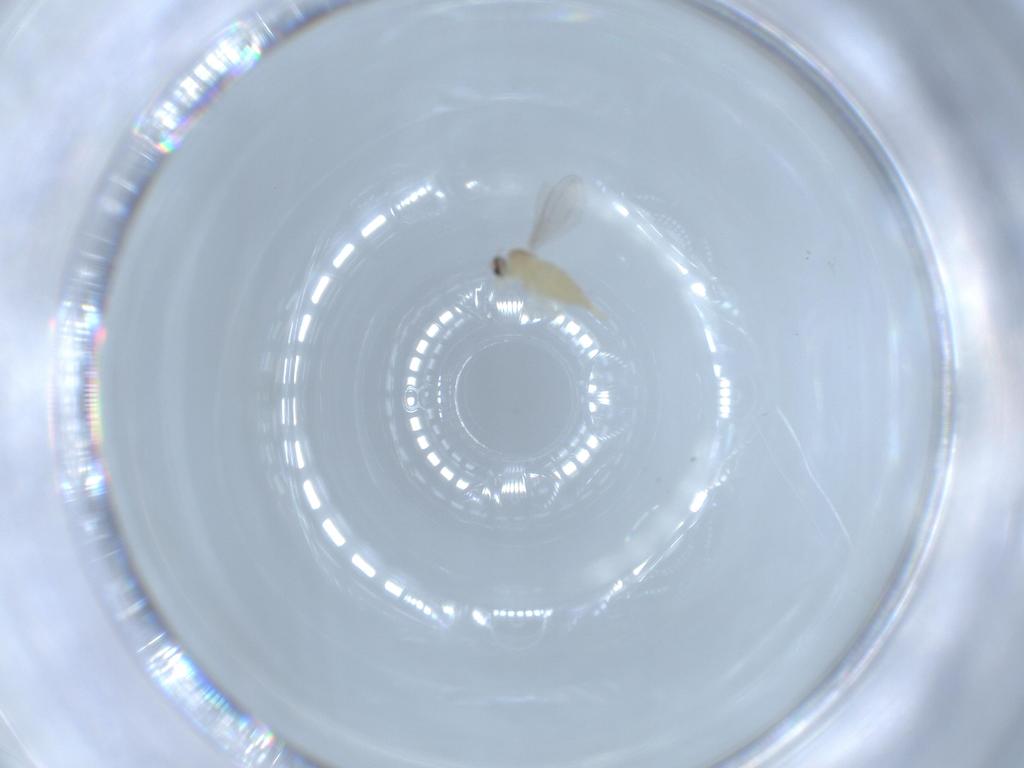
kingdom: Animalia
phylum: Arthropoda
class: Insecta
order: Diptera
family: Cecidomyiidae
